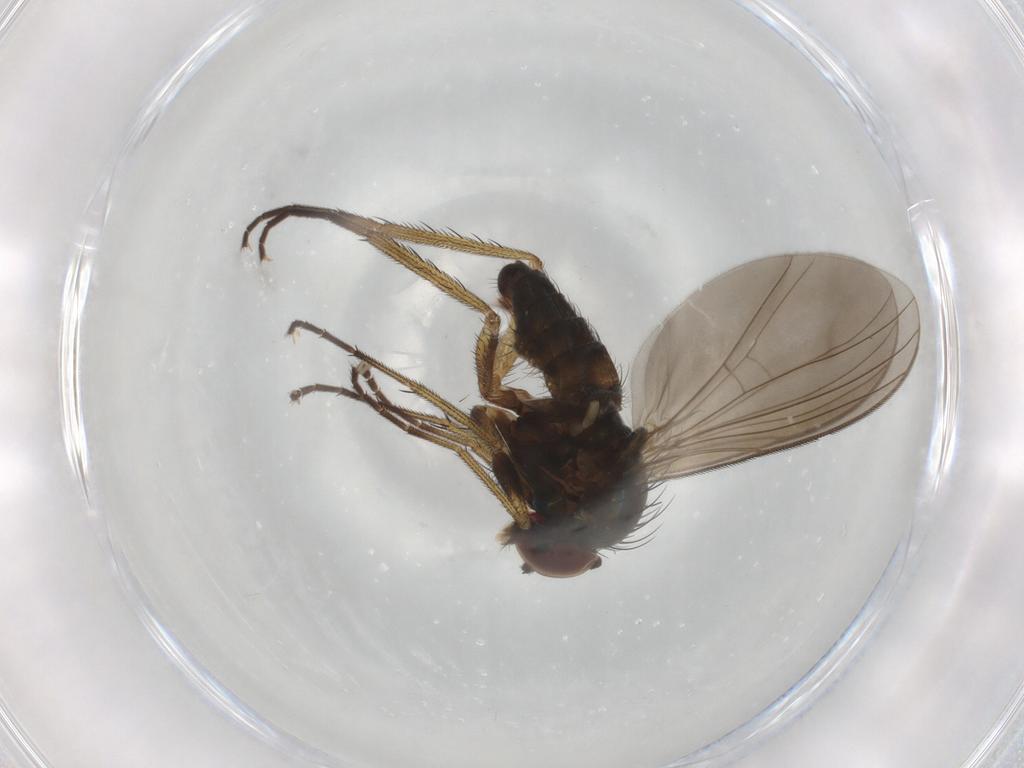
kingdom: Animalia
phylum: Arthropoda
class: Insecta
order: Diptera
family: Dolichopodidae
